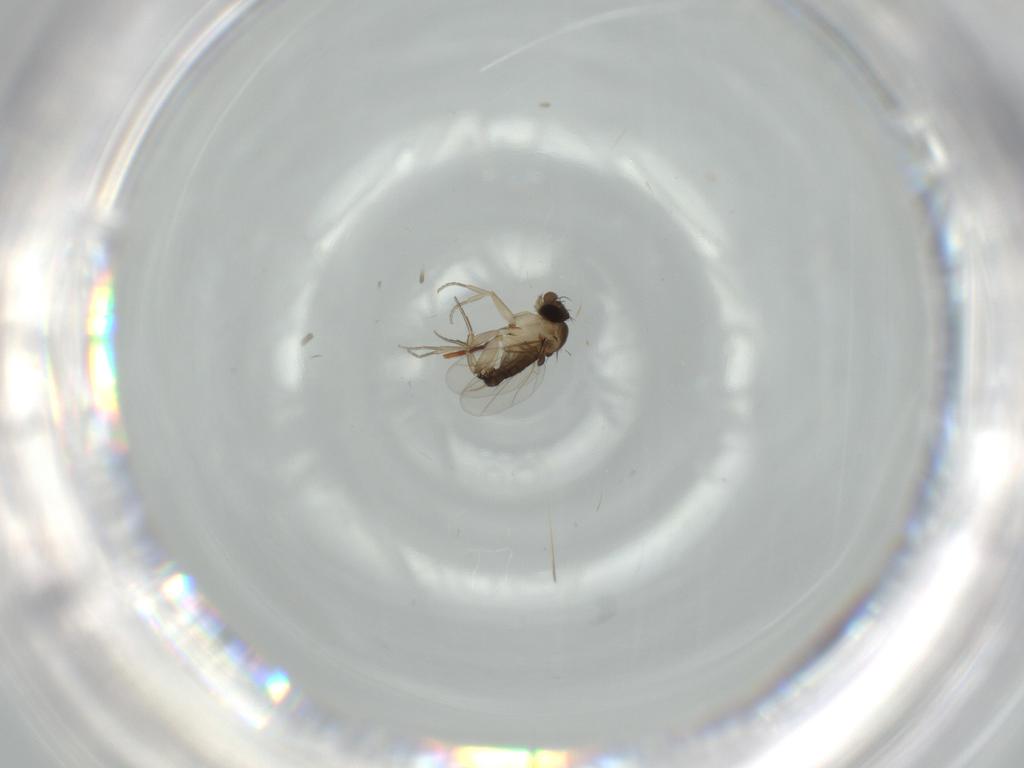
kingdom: Animalia
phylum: Arthropoda
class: Insecta
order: Diptera
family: Phoridae
